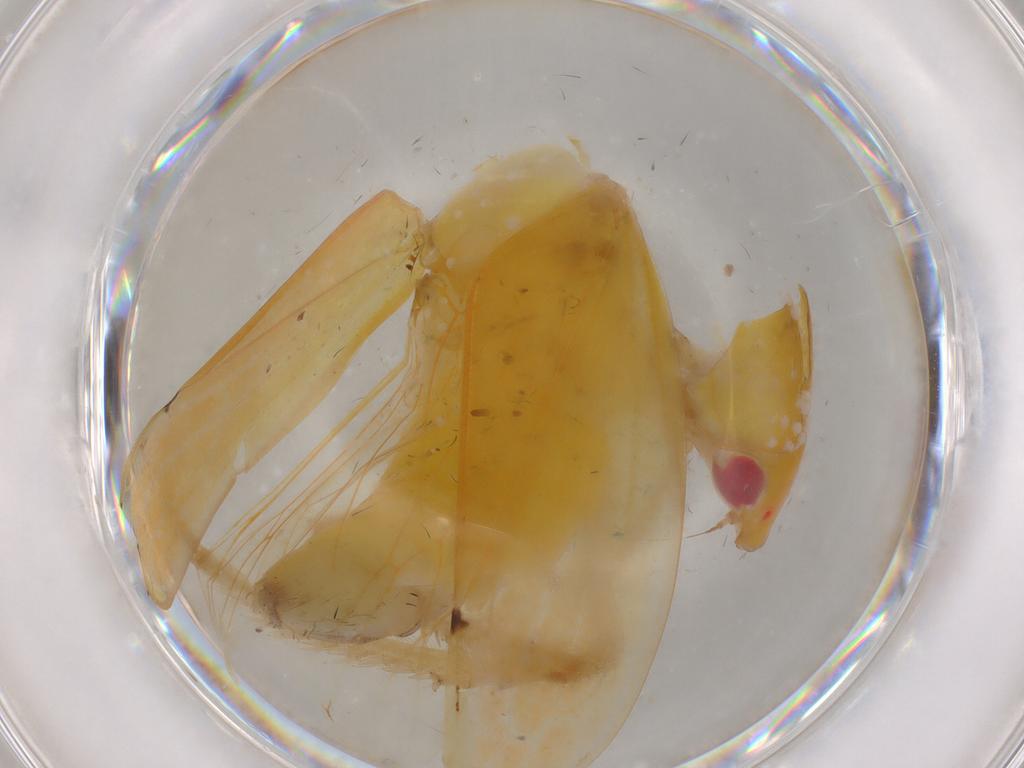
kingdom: Animalia
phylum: Arthropoda
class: Insecta
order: Hemiptera
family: Cicadellidae
